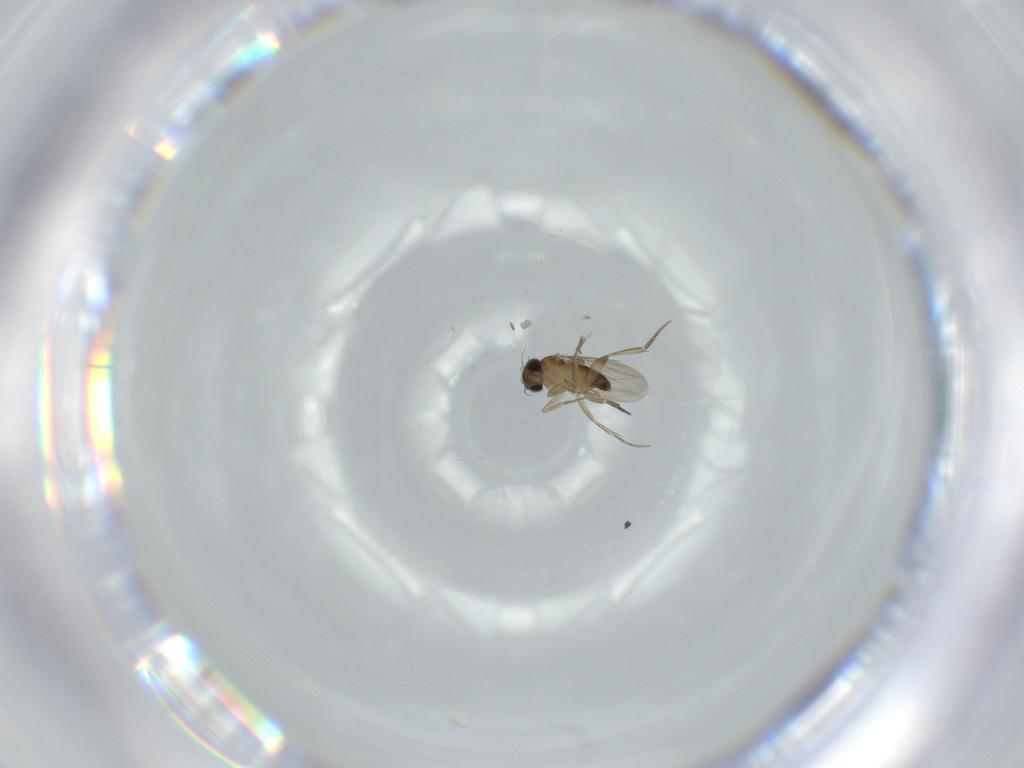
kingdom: Animalia
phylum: Arthropoda
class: Insecta
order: Diptera
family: Phoridae
